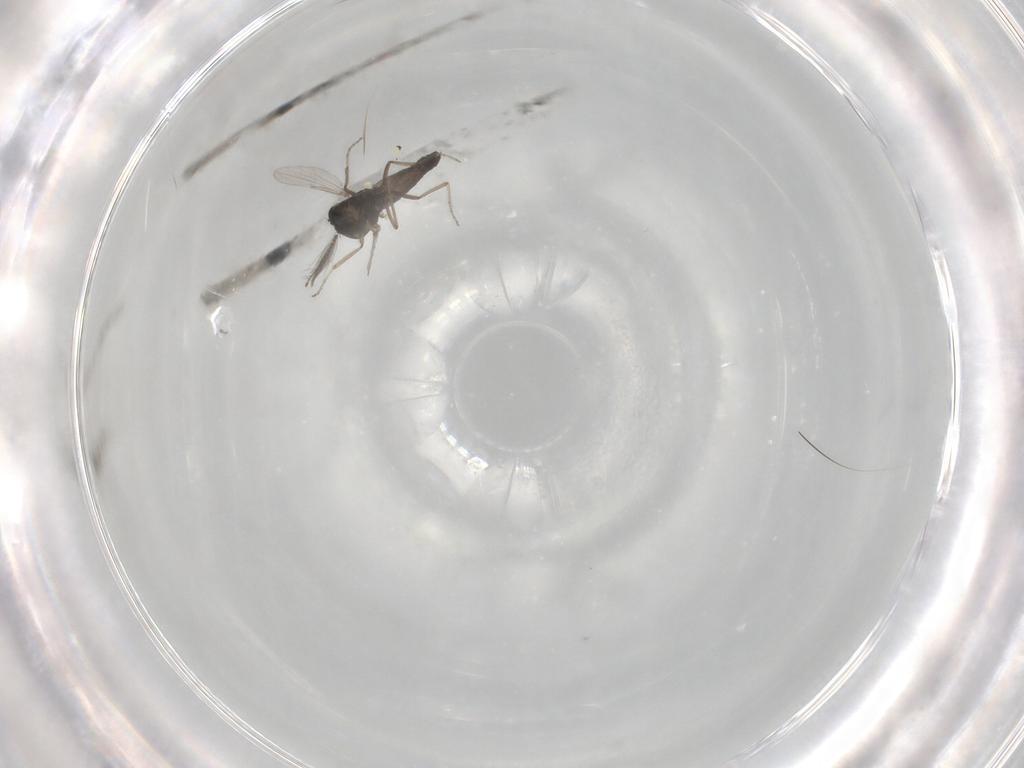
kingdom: Animalia
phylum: Arthropoda
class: Insecta
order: Diptera
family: Ceratopogonidae
